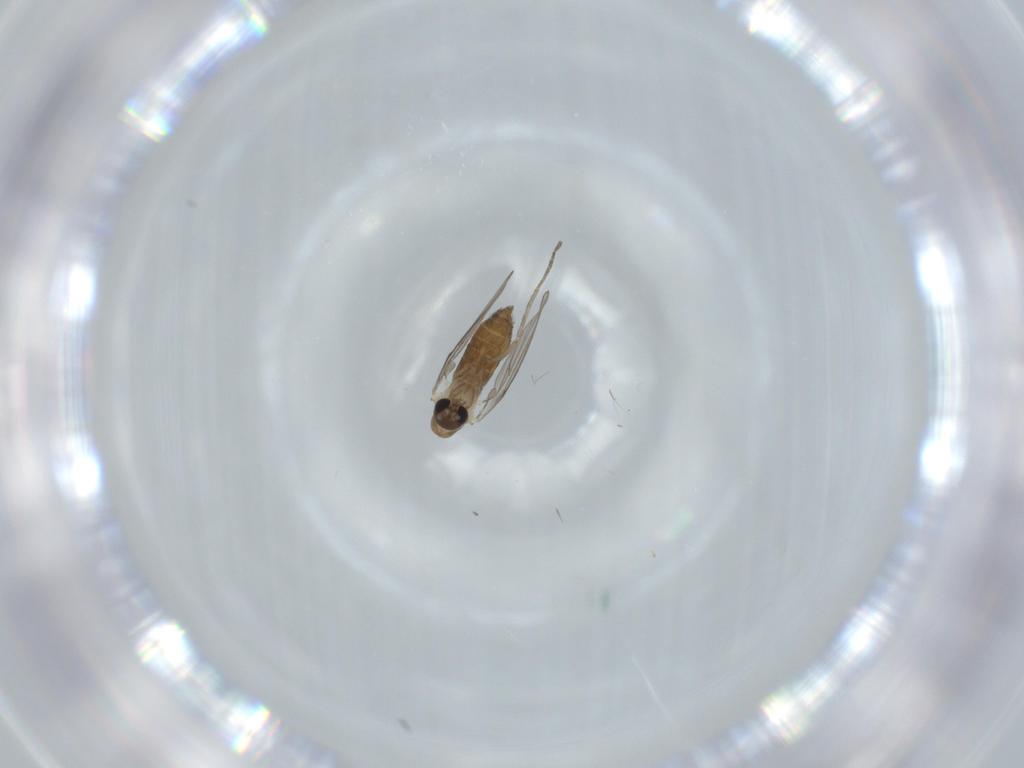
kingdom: Animalia
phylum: Arthropoda
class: Insecta
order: Diptera
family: Psychodidae
